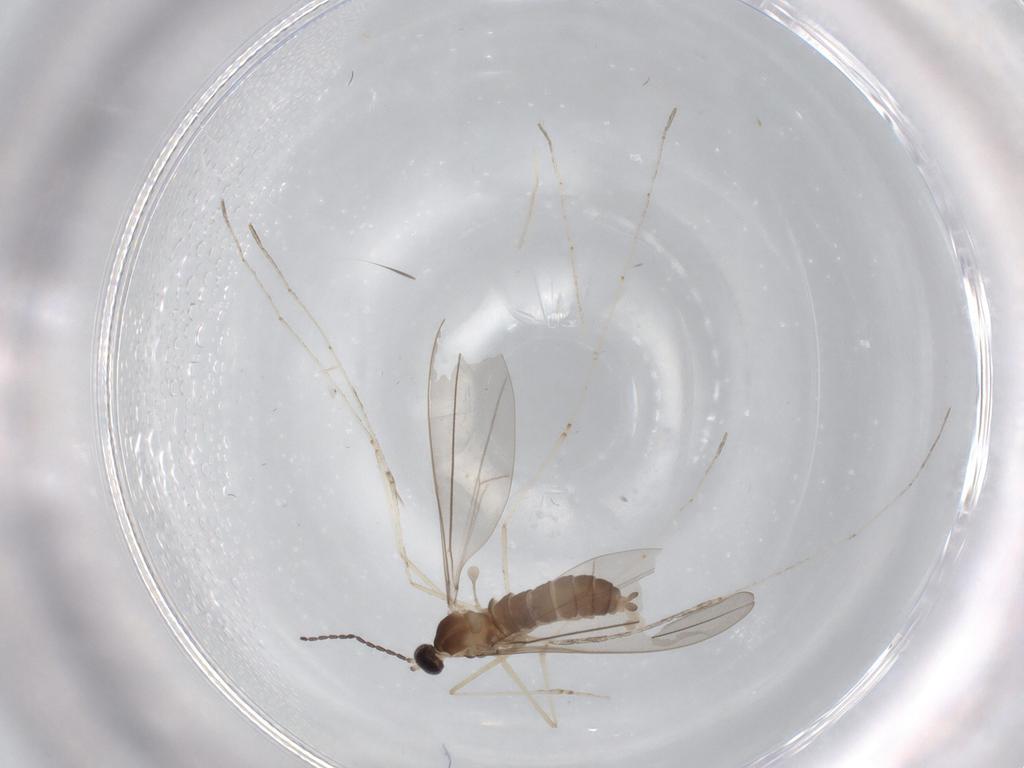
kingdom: Animalia
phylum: Arthropoda
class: Insecta
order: Diptera
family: Cecidomyiidae
